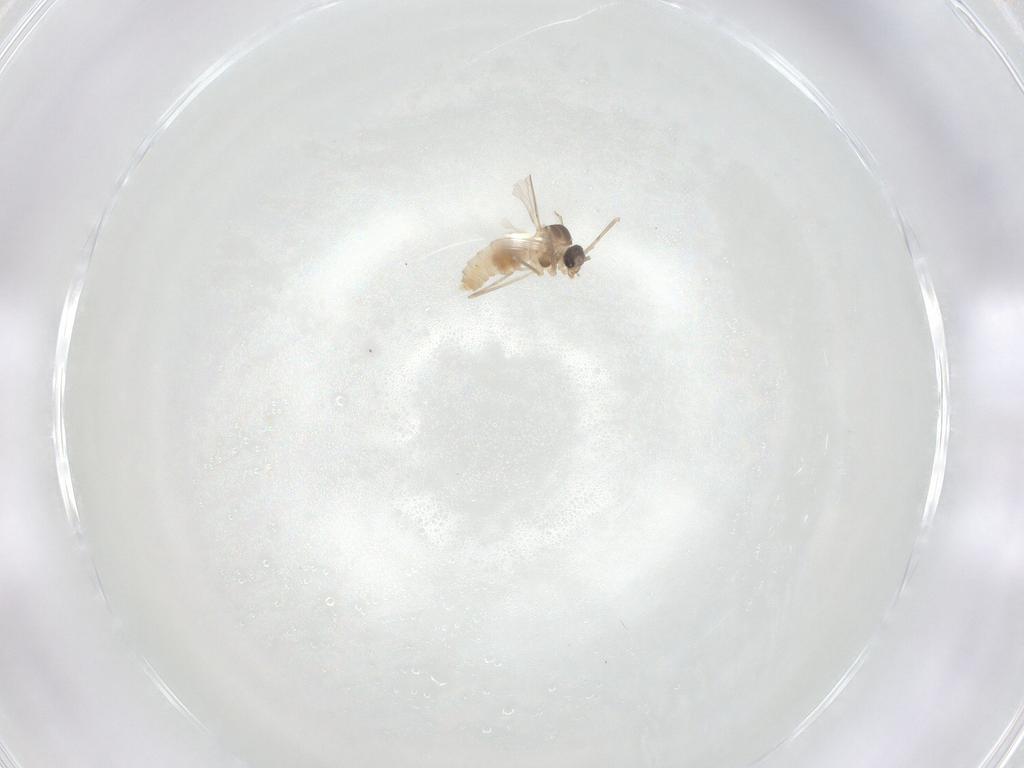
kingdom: Animalia
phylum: Arthropoda
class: Insecta
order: Diptera
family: Cecidomyiidae
